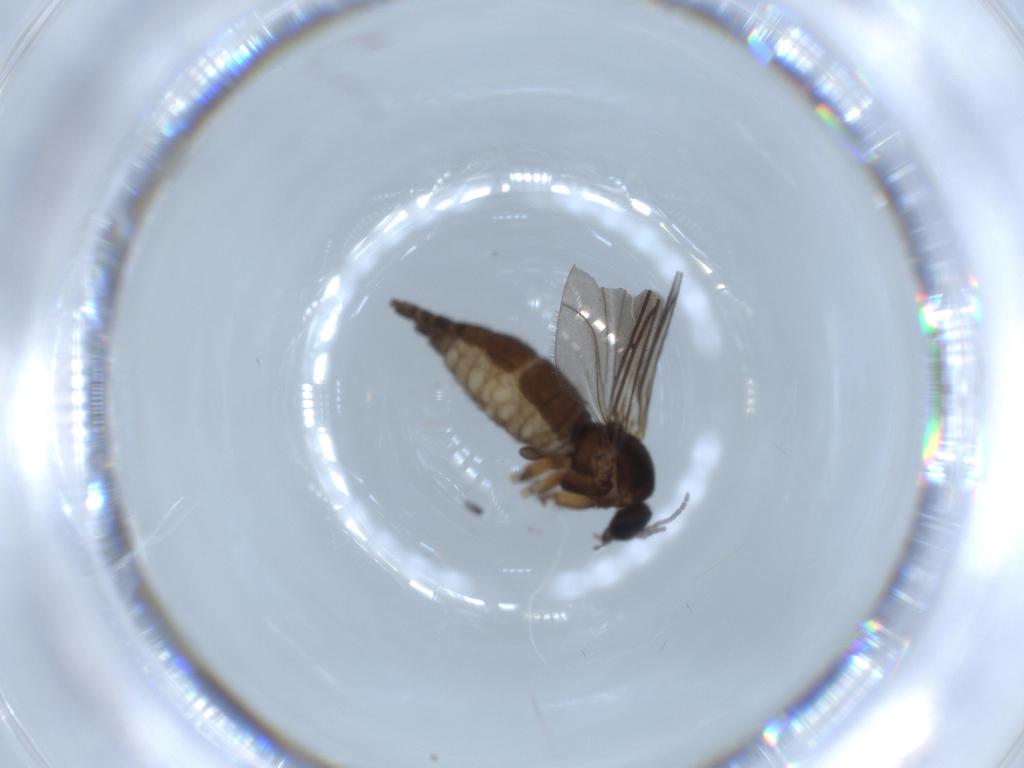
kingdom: Animalia
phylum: Arthropoda
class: Insecta
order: Diptera
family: Sciaridae
